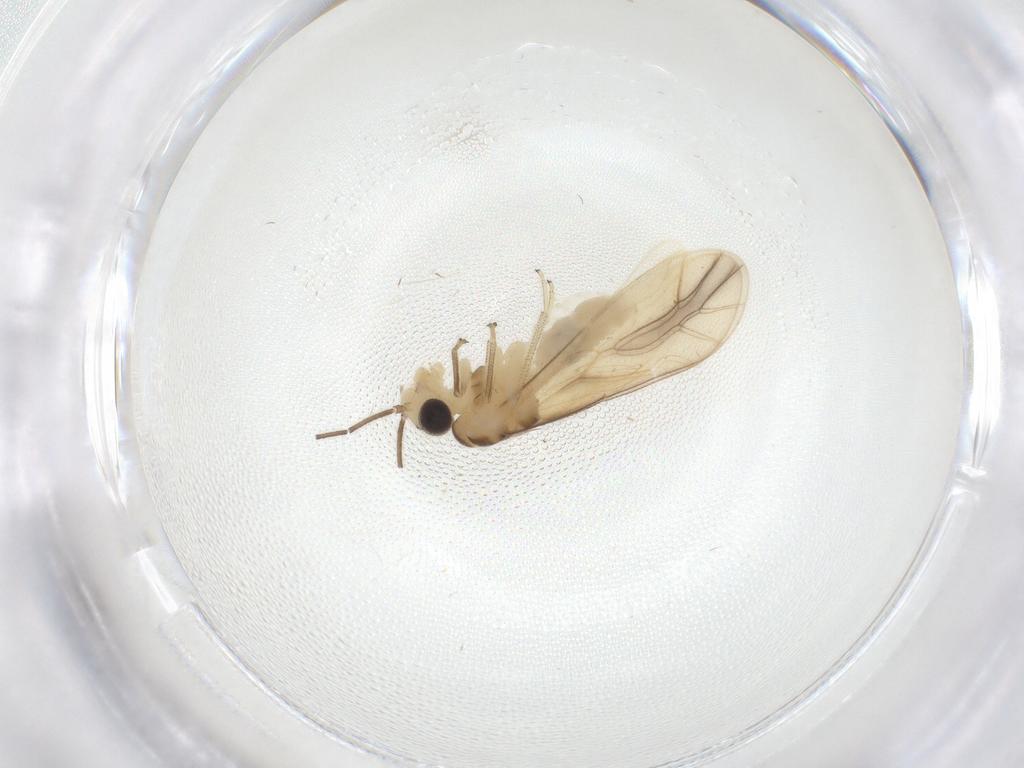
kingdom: Animalia
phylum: Arthropoda
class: Insecta
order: Psocodea
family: Caeciliusidae
